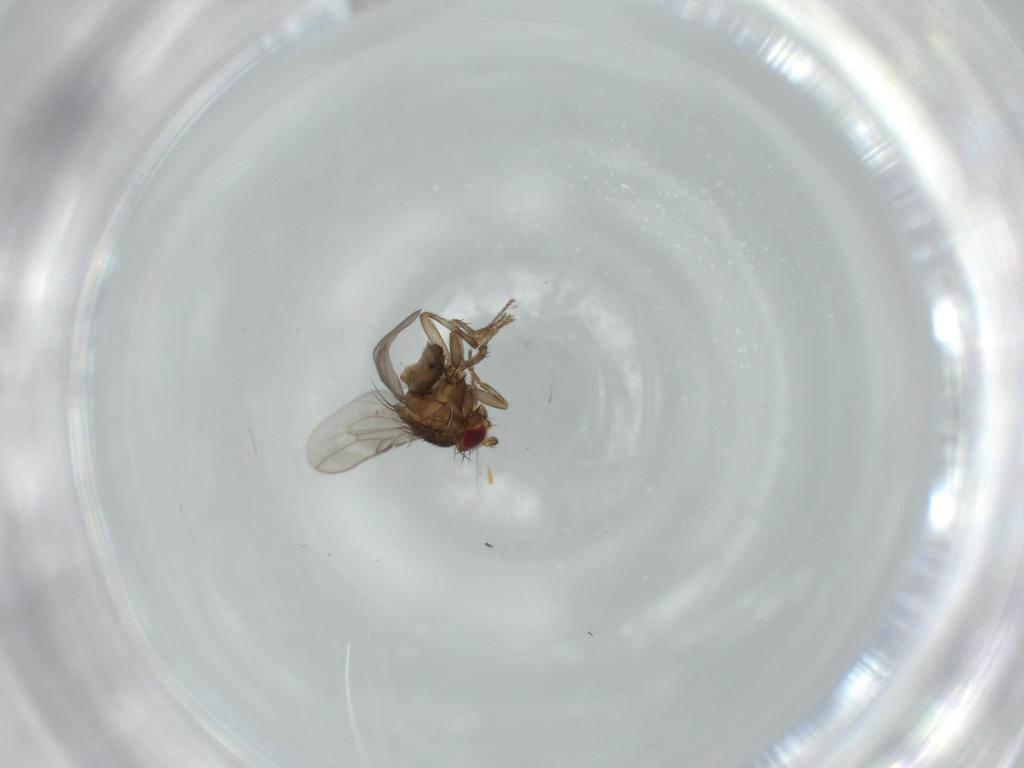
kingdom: Animalia
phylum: Arthropoda
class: Insecta
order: Diptera
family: Sphaeroceridae
